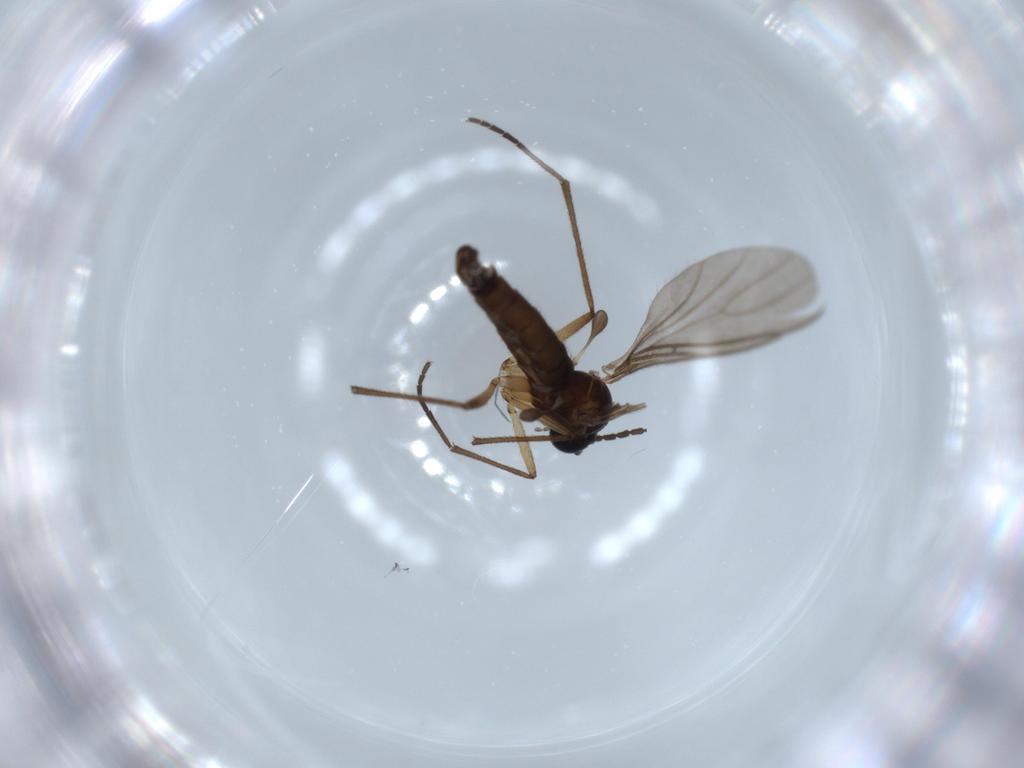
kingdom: Animalia
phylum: Arthropoda
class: Insecta
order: Diptera
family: Sciaridae
